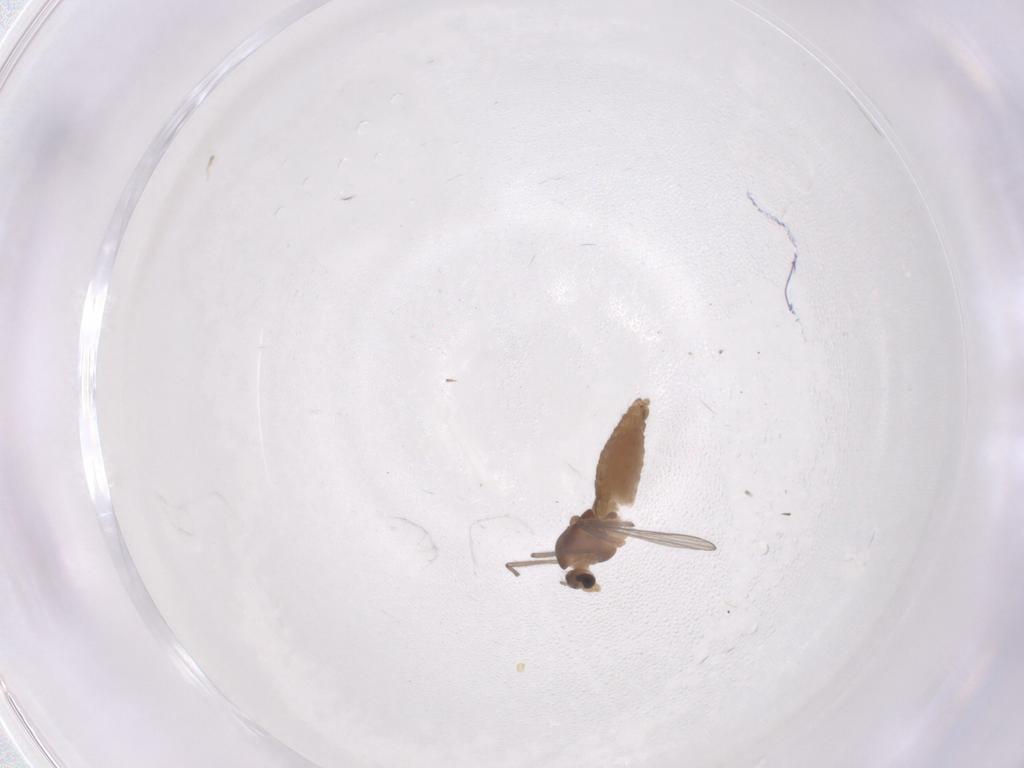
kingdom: Animalia
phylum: Arthropoda
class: Insecta
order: Diptera
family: Chironomidae
